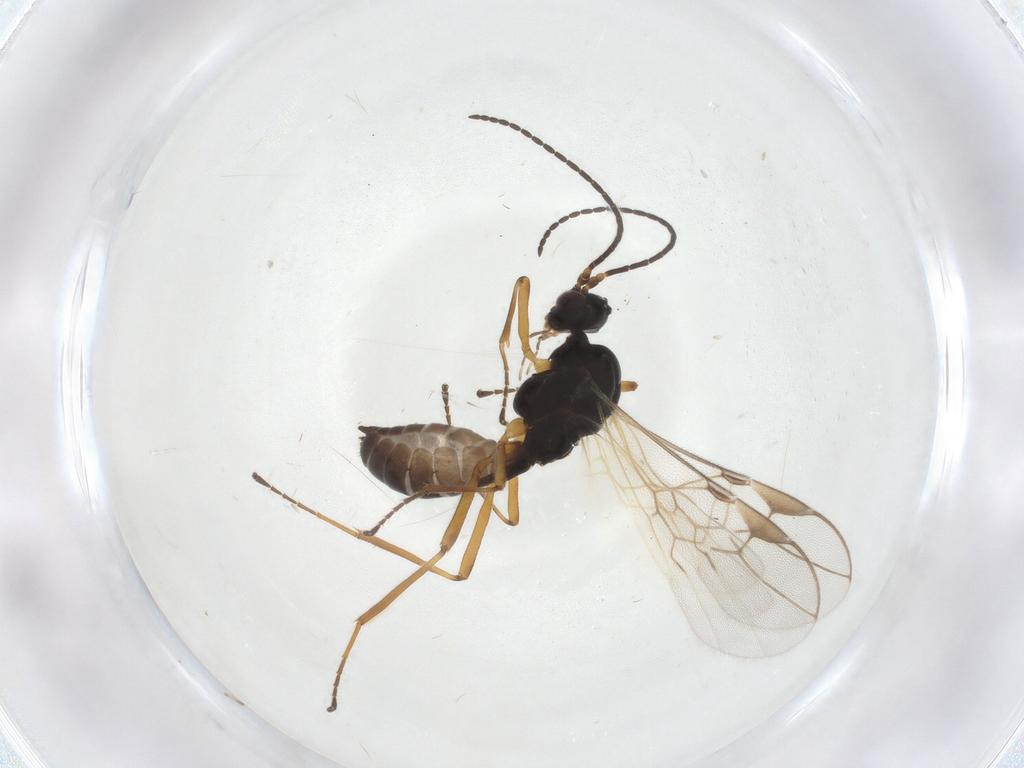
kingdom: Animalia
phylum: Arthropoda
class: Insecta
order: Hymenoptera
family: Braconidae
